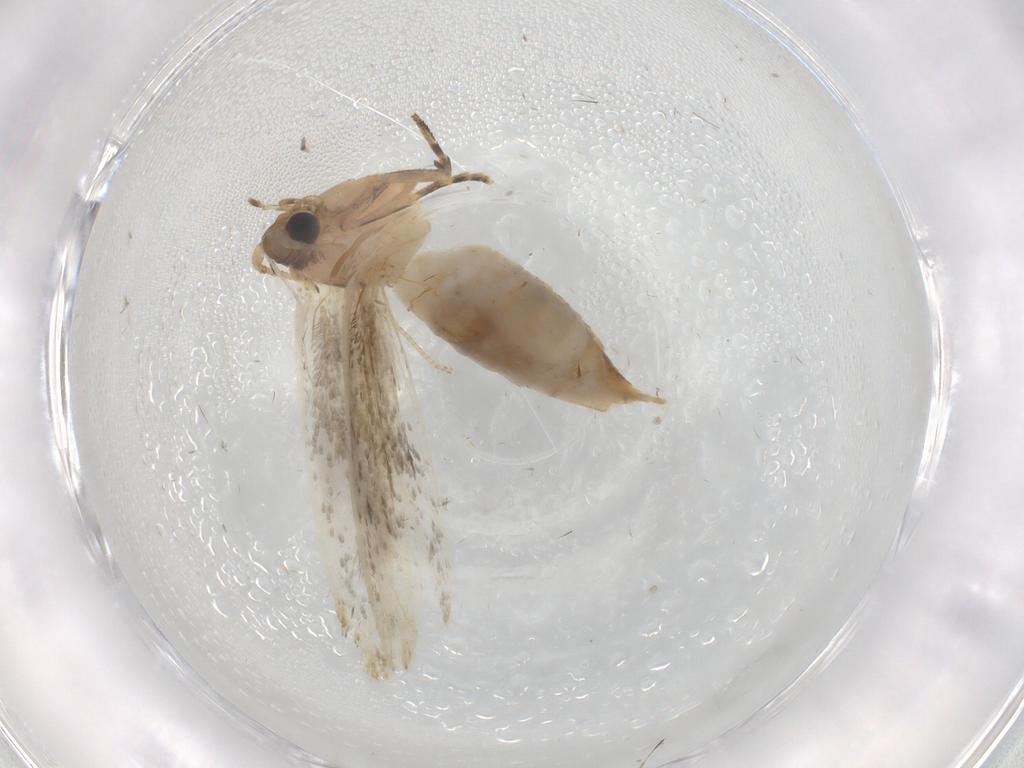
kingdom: Animalia
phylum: Arthropoda
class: Insecta
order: Lepidoptera
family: Tineidae
